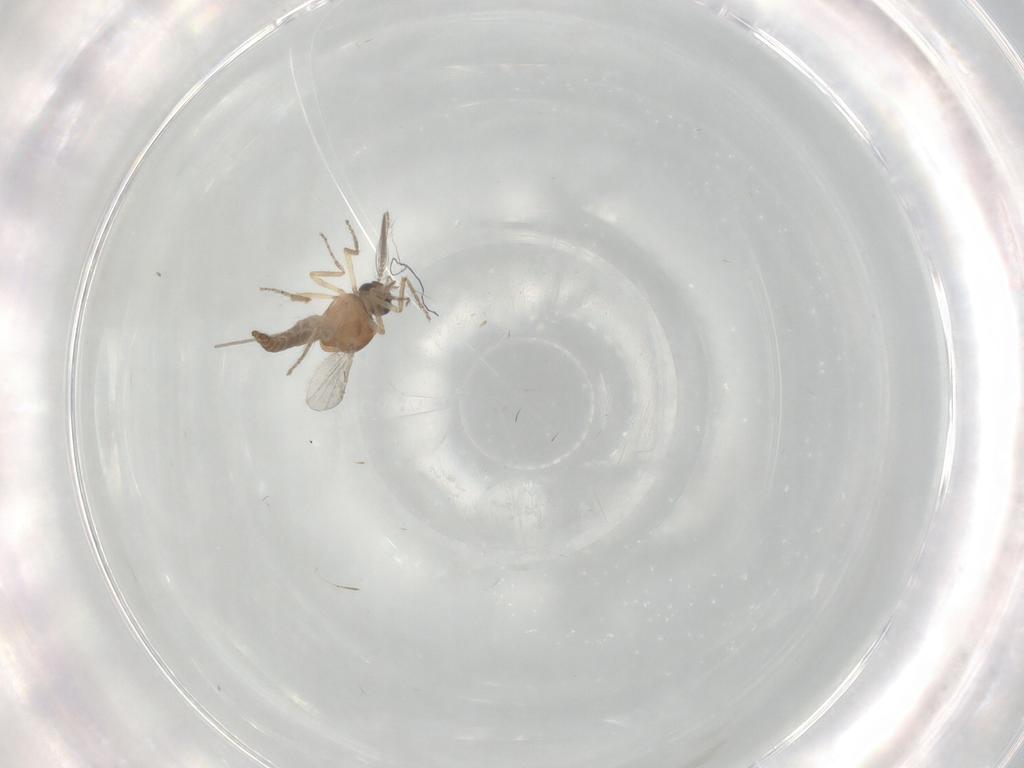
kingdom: Animalia
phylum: Arthropoda
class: Insecta
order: Diptera
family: Ceratopogonidae
